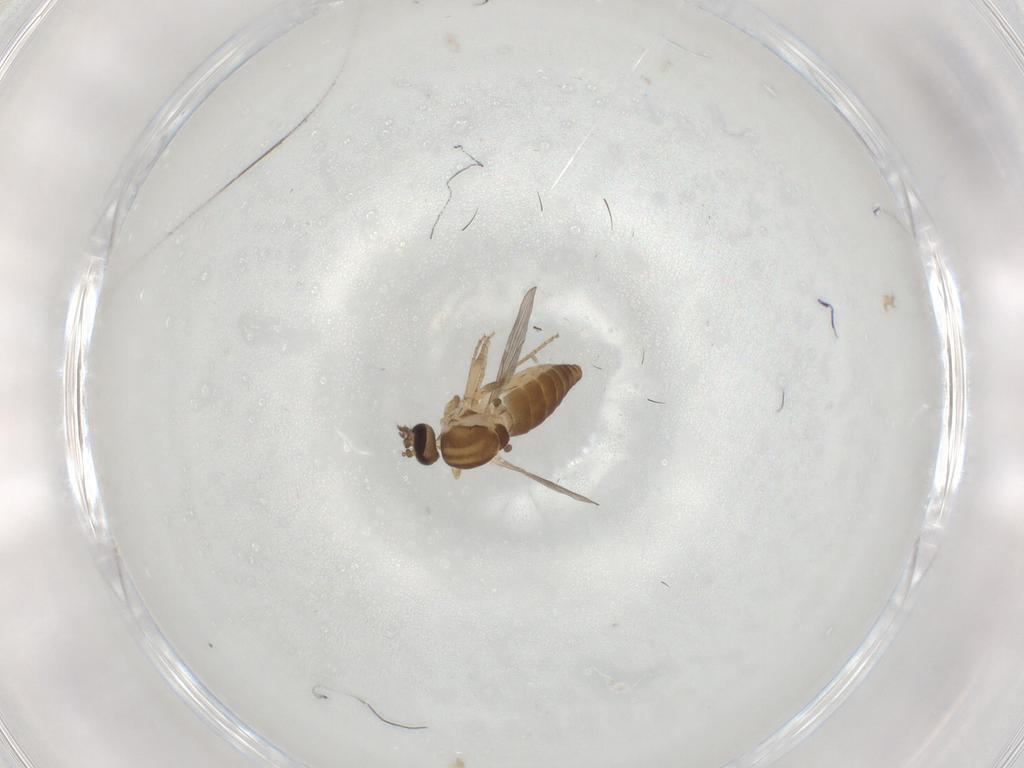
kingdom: Animalia
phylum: Arthropoda
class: Insecta
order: Diptera
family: Ceratopogonidae
